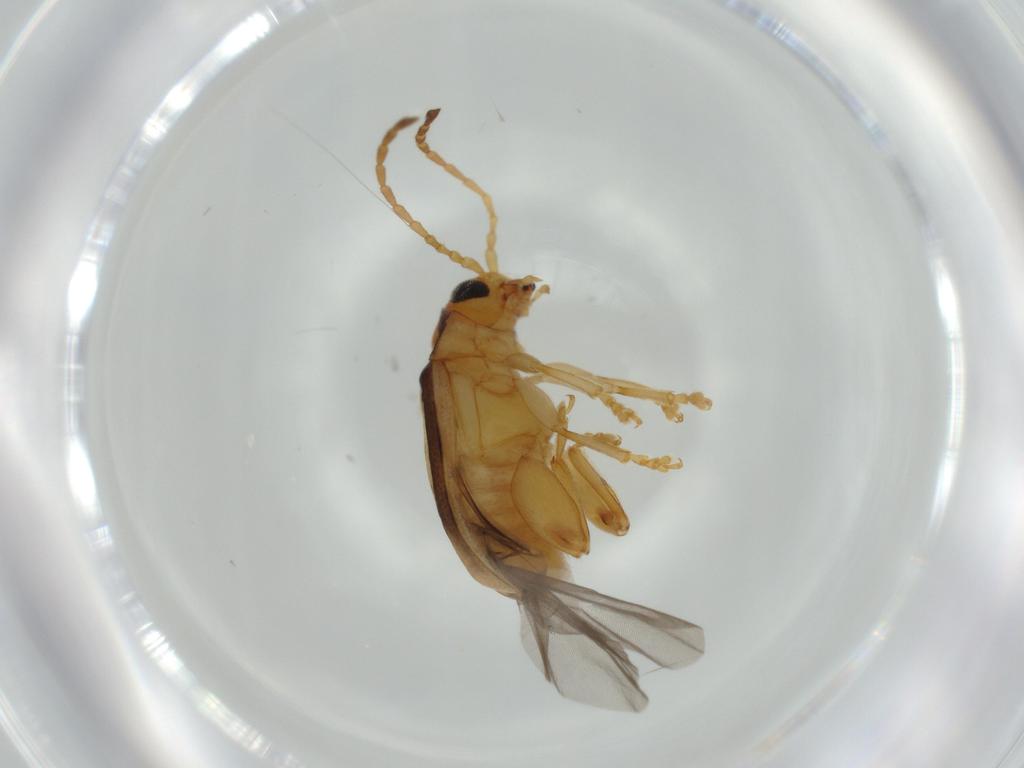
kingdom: Animalia
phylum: Arthropoda
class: Insecta
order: Coleoptera
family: Chrysomelidae
